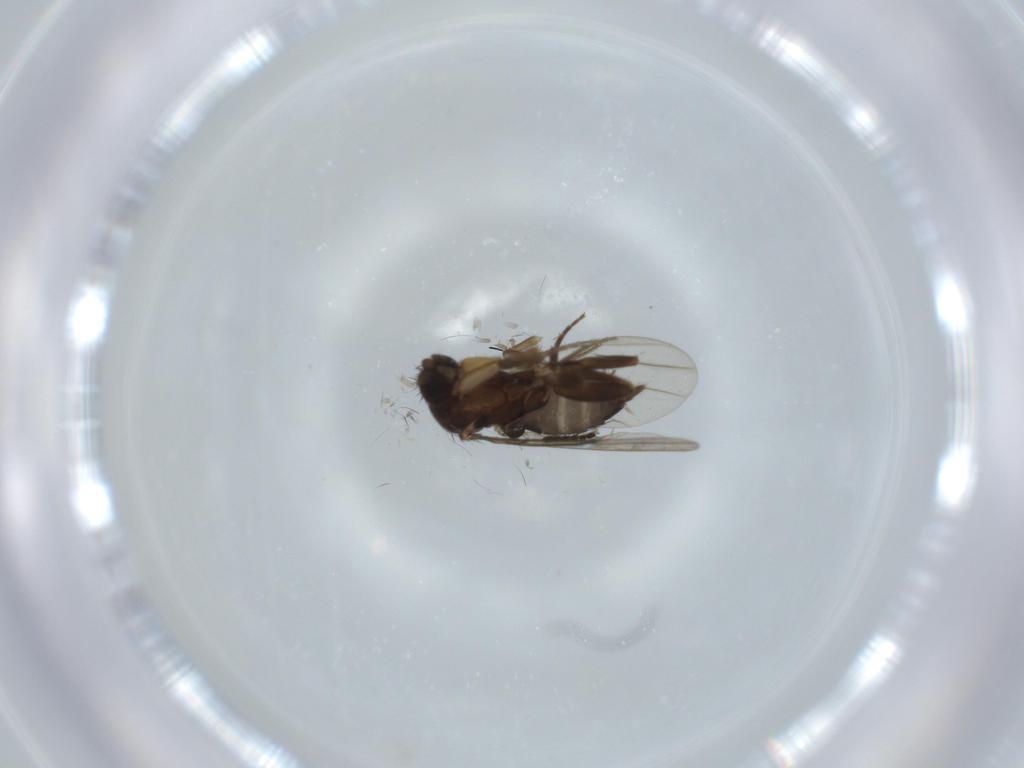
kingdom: Animalia
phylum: Arthropoda
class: Insecta
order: Diptera
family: Phoridae
